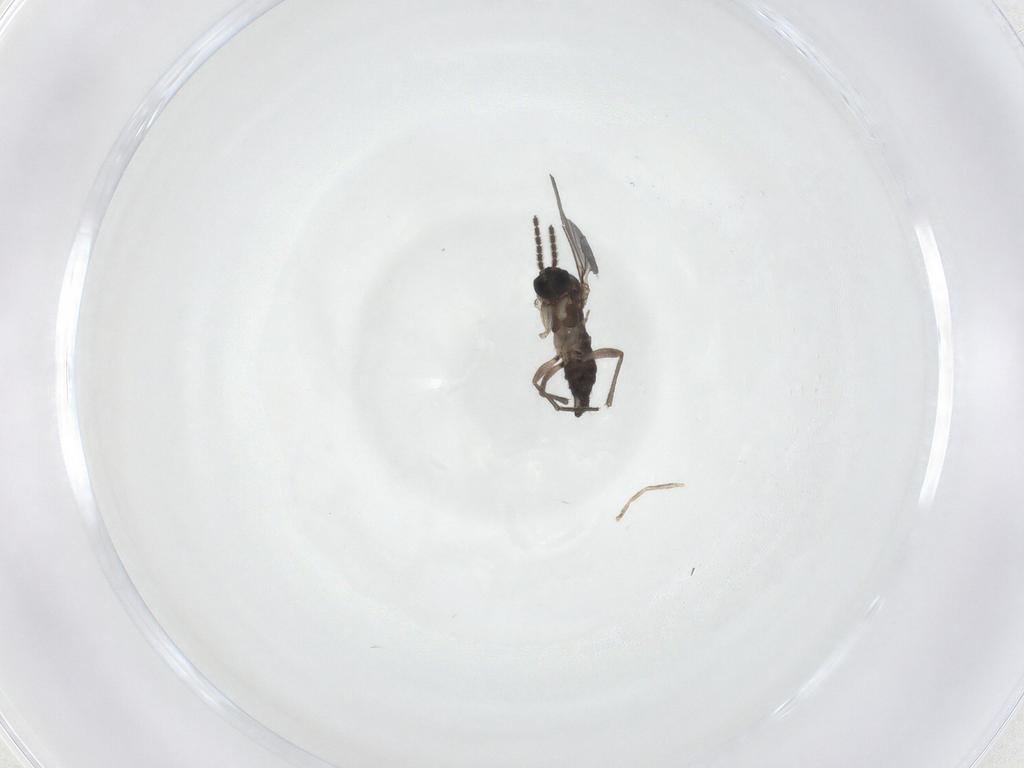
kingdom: Animalia
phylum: Arthropoda
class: Insecta
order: Diptera
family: Sciaridae
